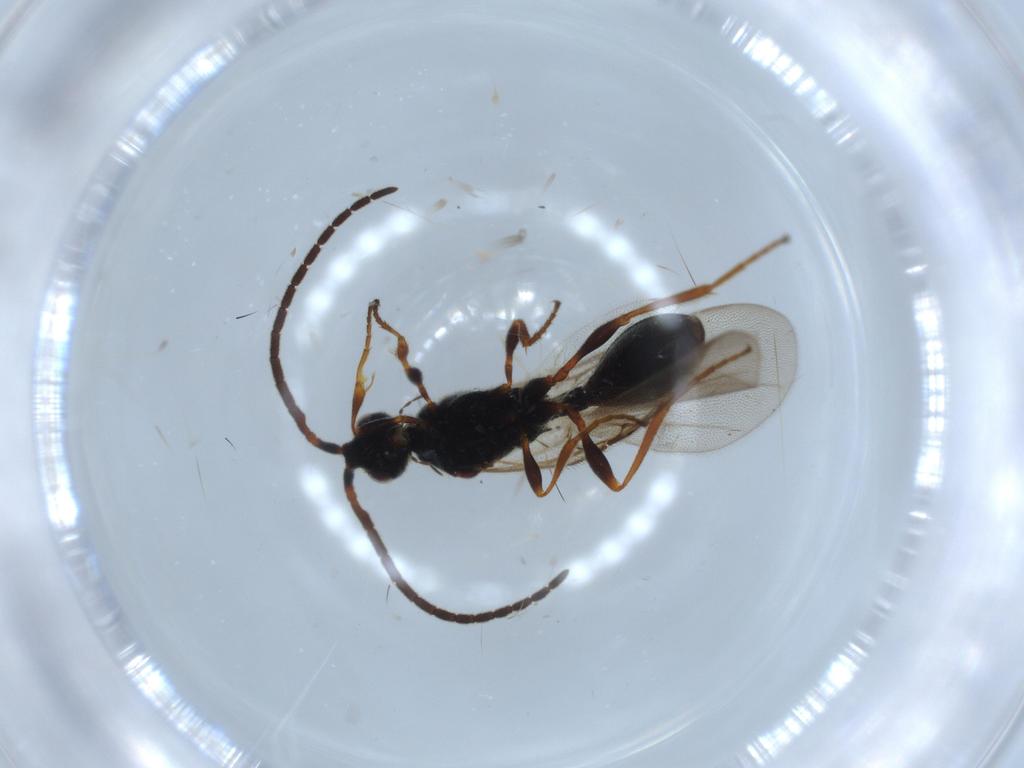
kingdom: Animalia
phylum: Arthropoda
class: Insecta
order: Hymenoptera
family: Diapriidae
